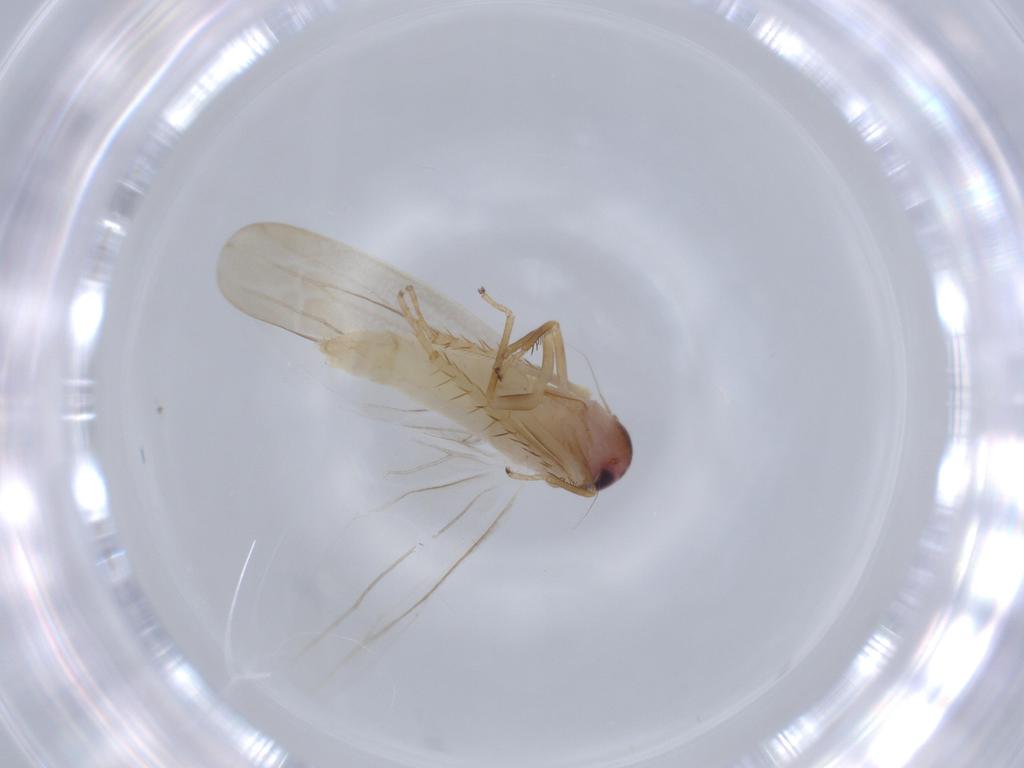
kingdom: Animalia
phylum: Arthropoda
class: Insecta
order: Hemiptera
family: Cicadellidae
